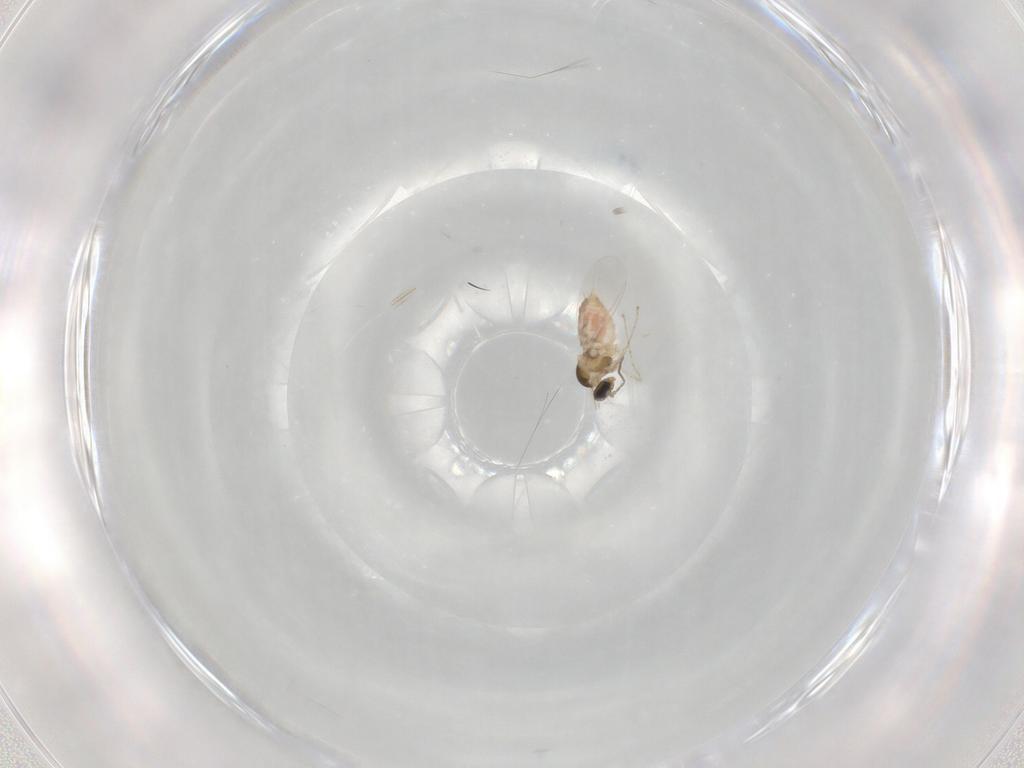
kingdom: Animalia
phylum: Arthropoda
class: Insecta
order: Diptera
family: Cecidomyiidae
